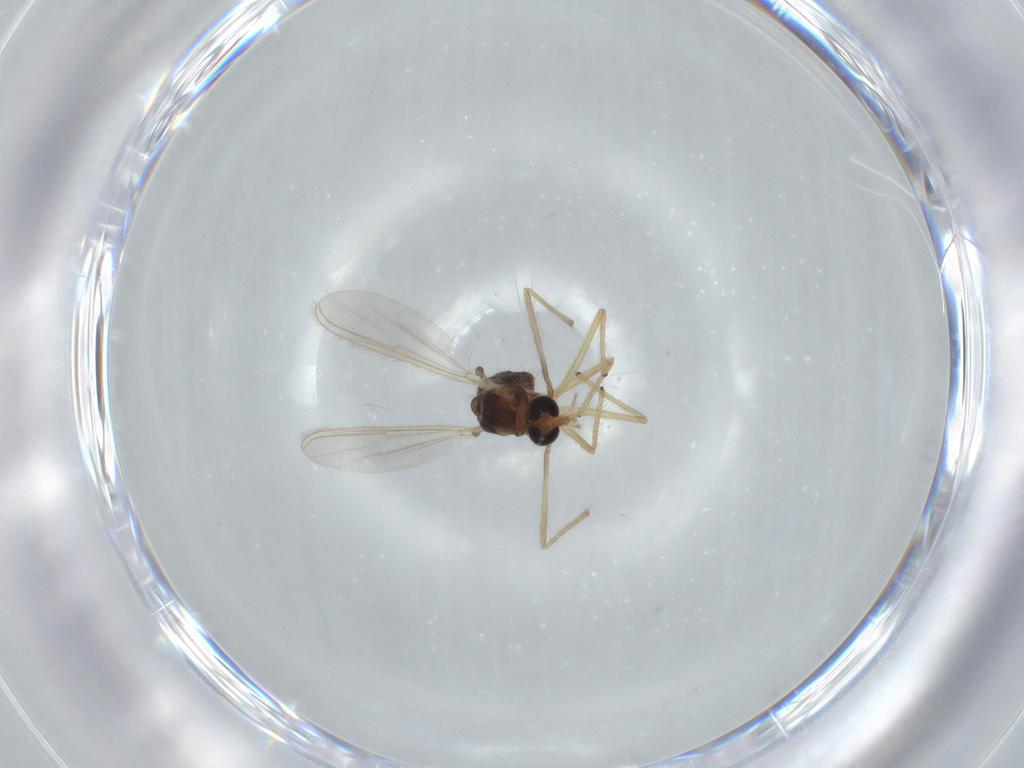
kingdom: Animalia
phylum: Arthropoda
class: Insecta
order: Diptera
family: Chironomidae
